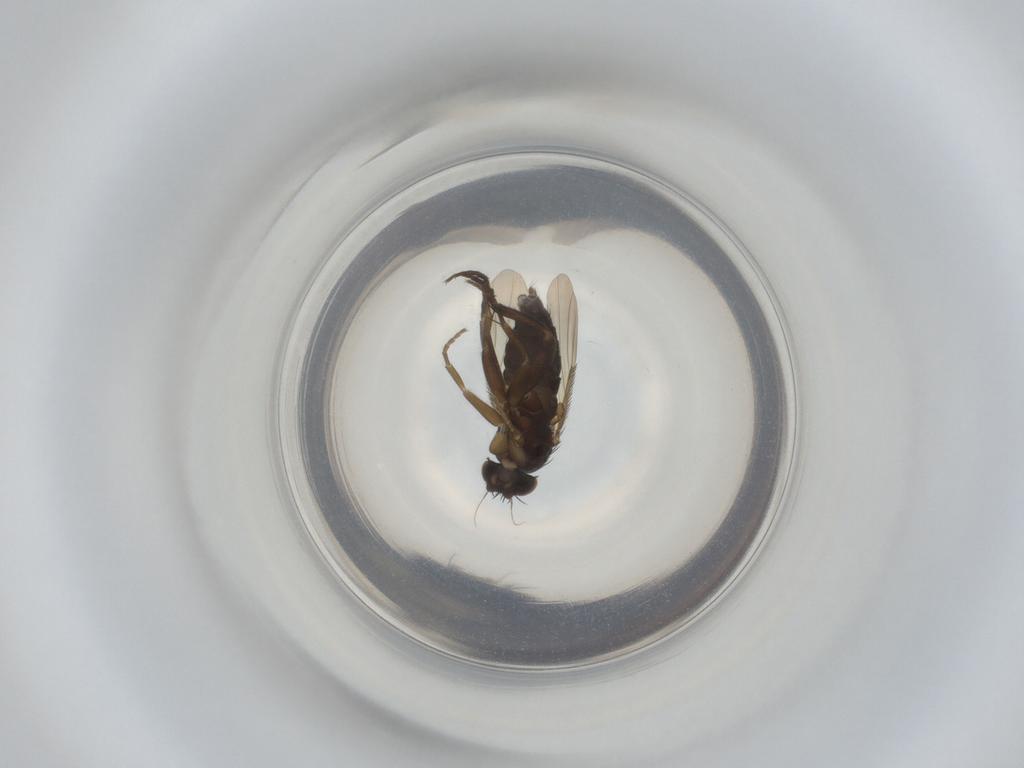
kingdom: Animalia
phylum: Arthropoda
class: Insecta
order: Diptera
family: Phoridae
